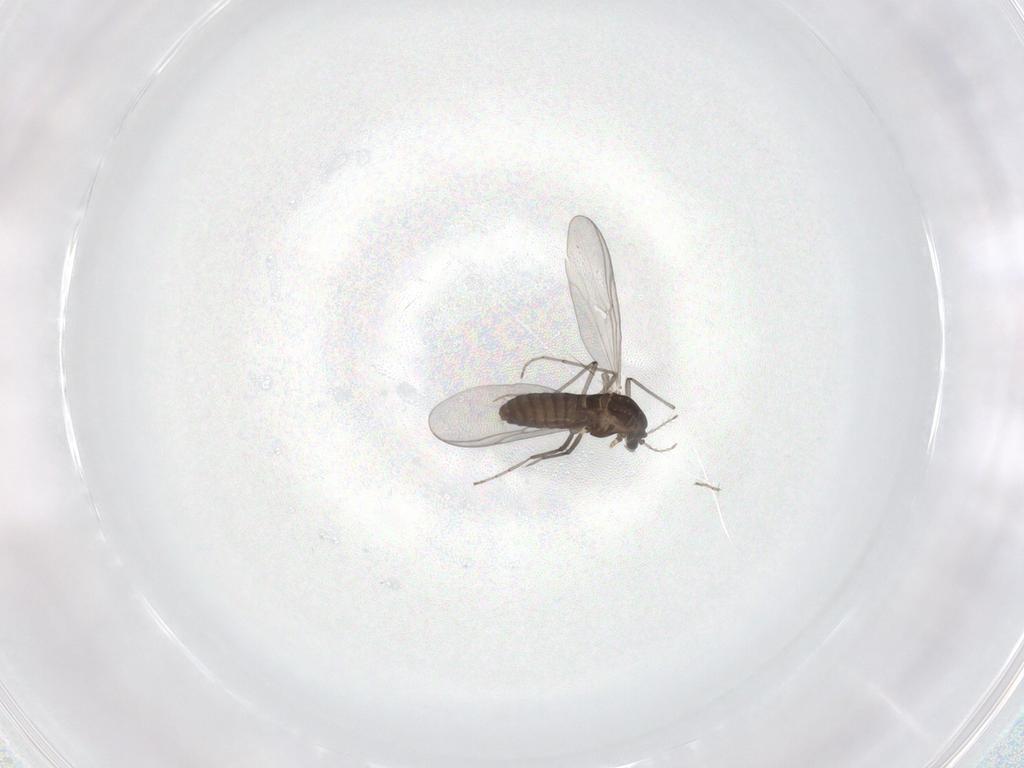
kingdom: Animalia
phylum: Arthropoda
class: Insecta
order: Diptera
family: Chironomidae
